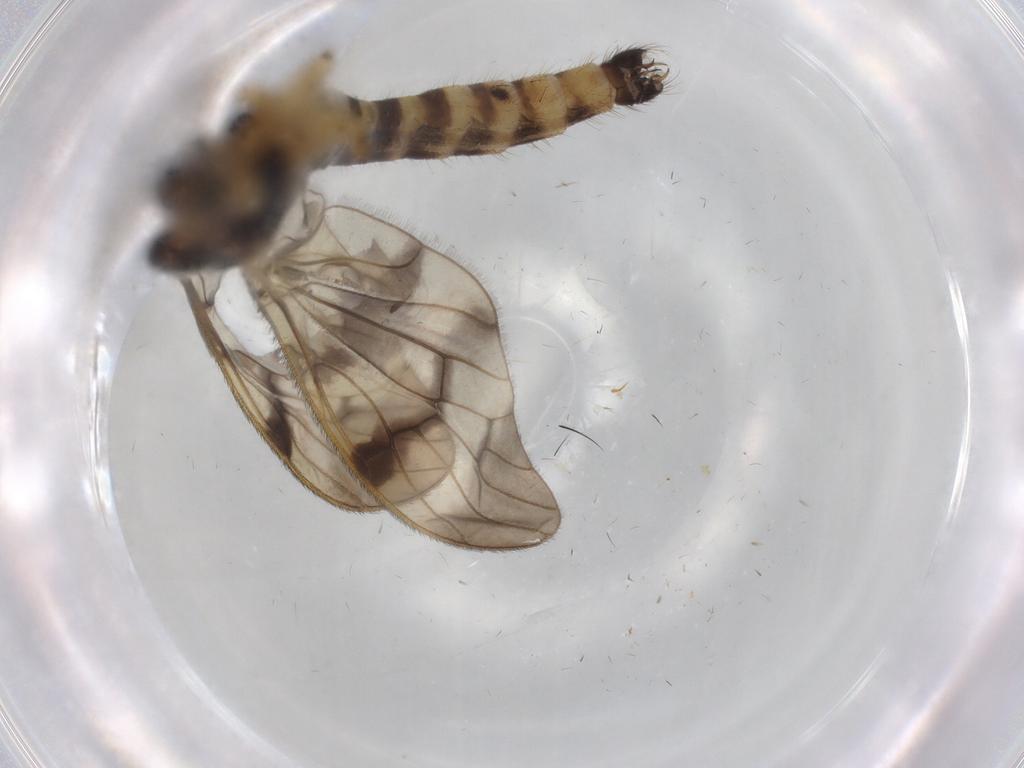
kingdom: Animalia
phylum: Arthropoda
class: Insecta
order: Diptera
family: Limoniidae
